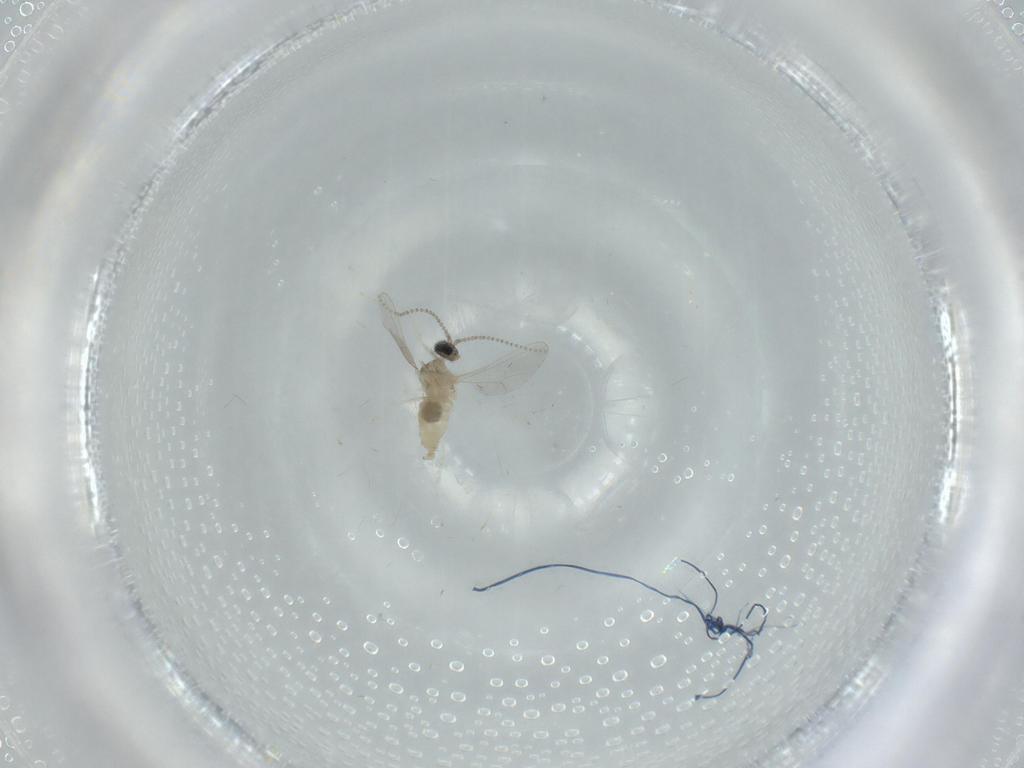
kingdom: Animalia
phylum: Arthropoda
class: Insecta
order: Diptera
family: Cecidomyiidae
